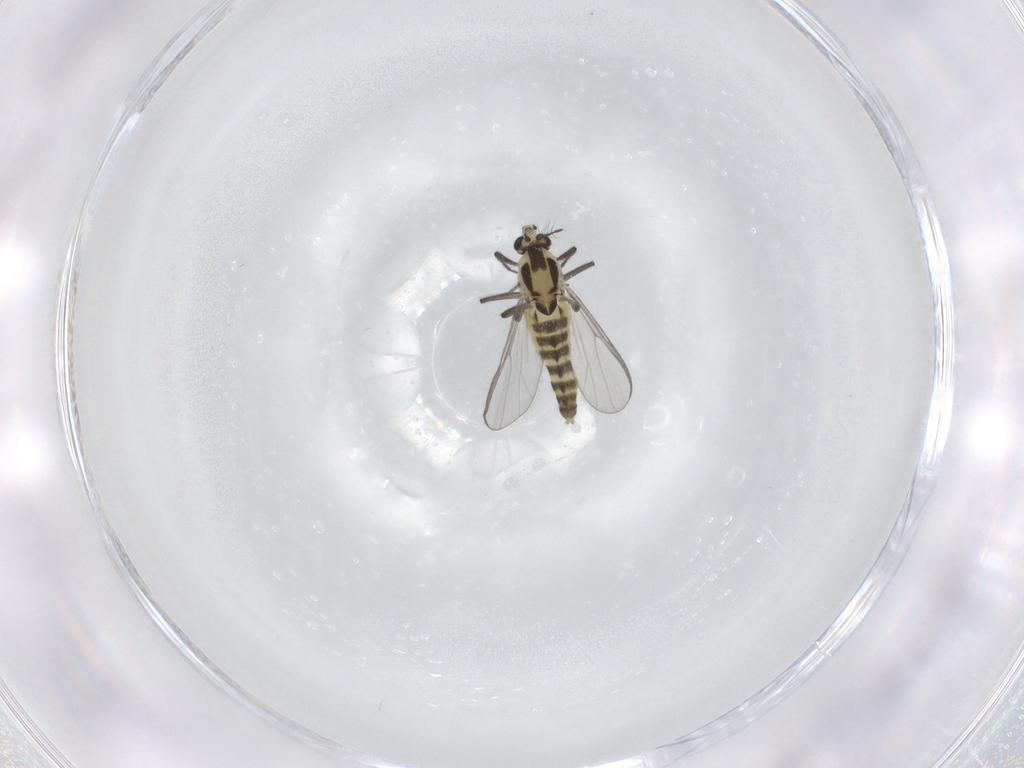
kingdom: Animalia
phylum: Arthropoda
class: Insecta
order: Diptera
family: Chironomidae
